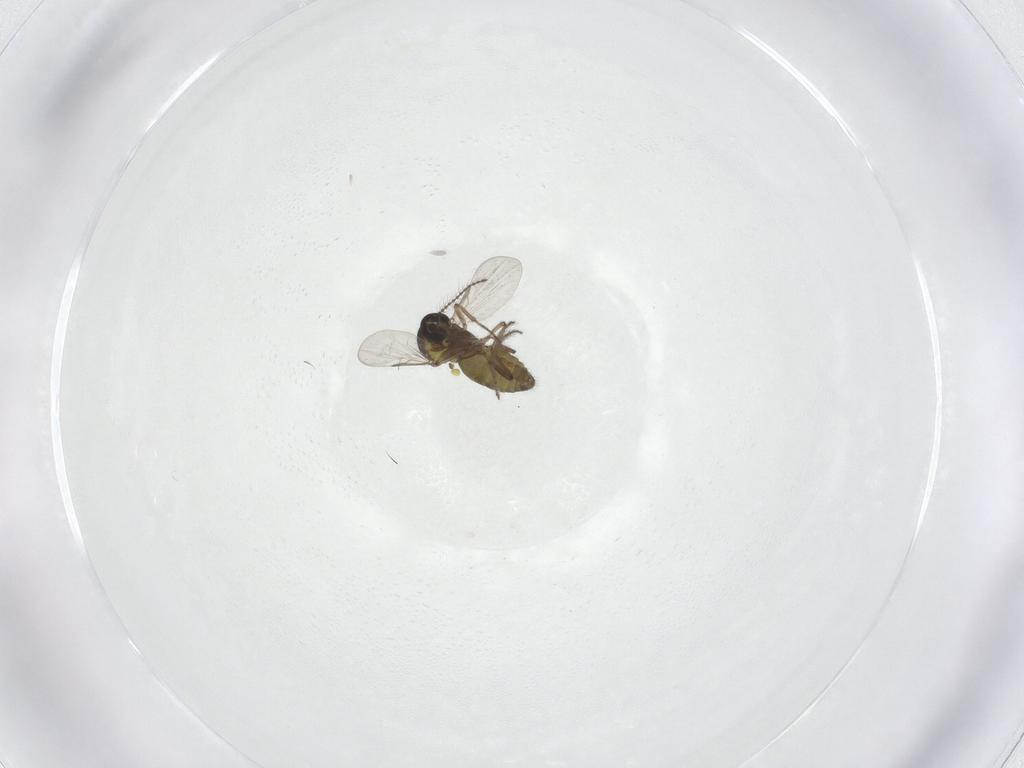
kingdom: Animalia
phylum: Arthropoda
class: Insecta
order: Diptera
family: Ceratopogonidae
